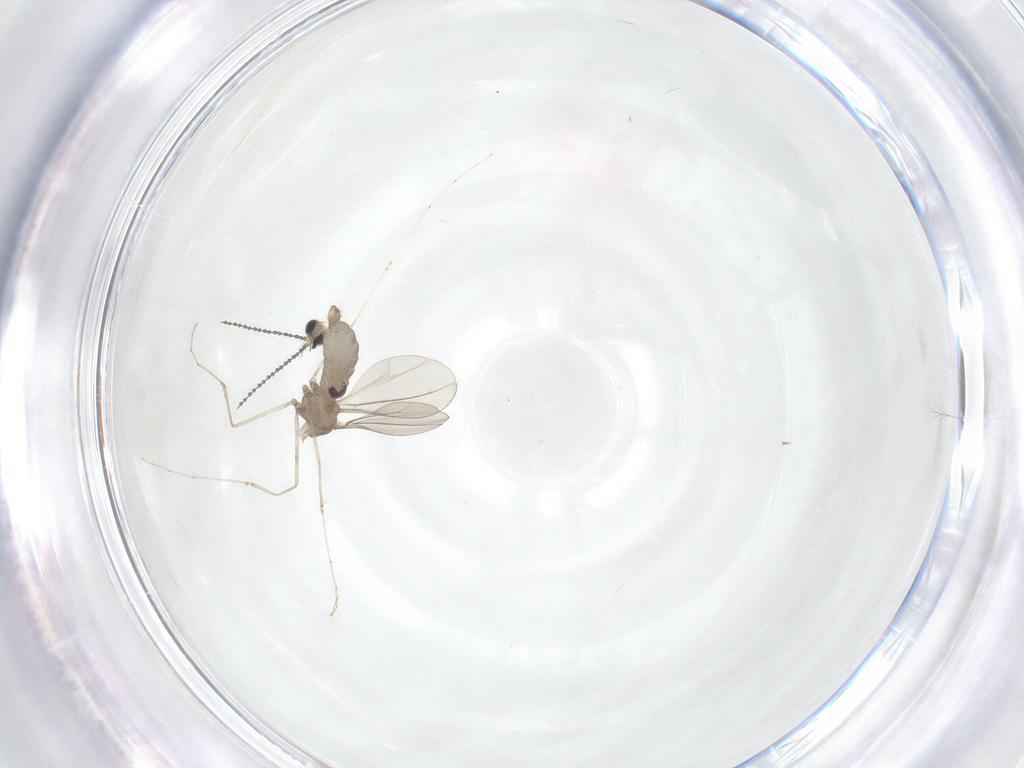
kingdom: Animalia
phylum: Arthropoda
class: Insecta
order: Diptera
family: Cecidomyiidae
